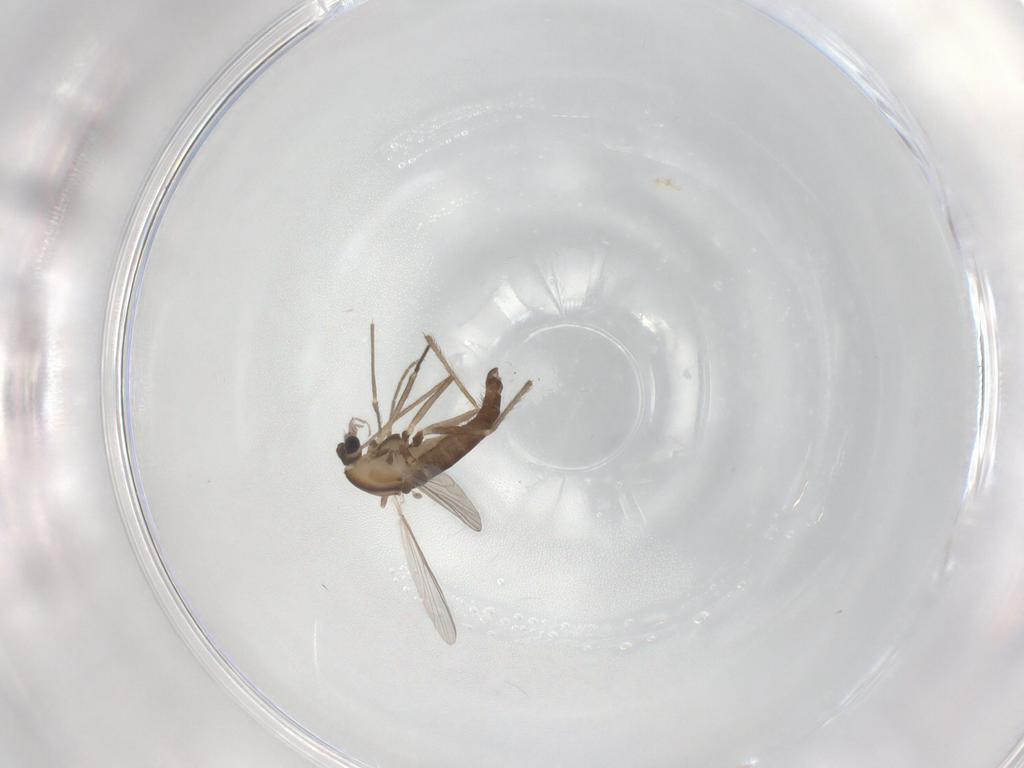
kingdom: Animalia
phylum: Arthropoda
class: Insecta
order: Diptera
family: Chironomidae
